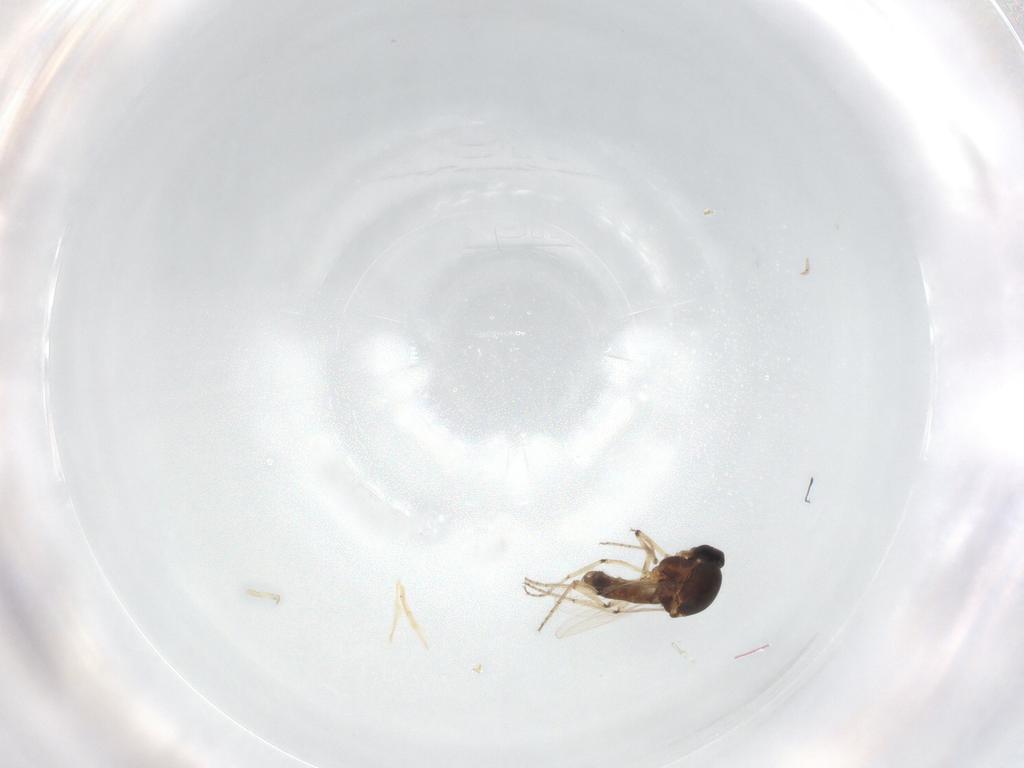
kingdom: Animalia
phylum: Arthropoda
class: Insecta
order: Diptera
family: Ceratopogonidae
